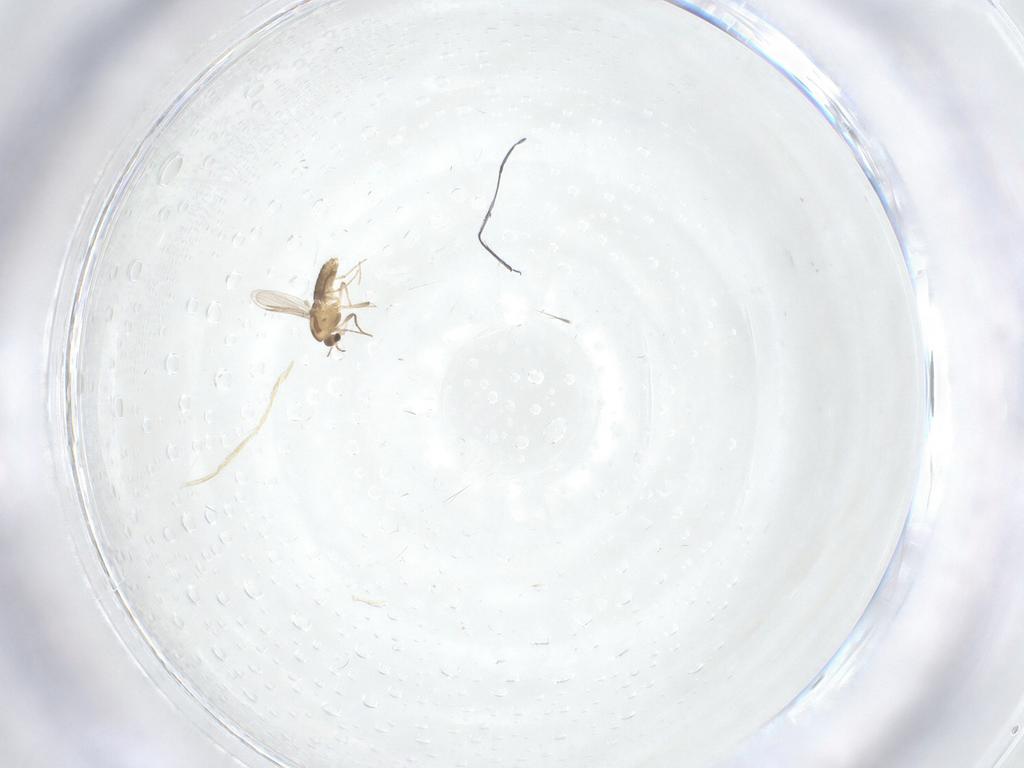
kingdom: Animalia
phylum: Arthropoda
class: Insecta
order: Diptera
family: Chironomidae
